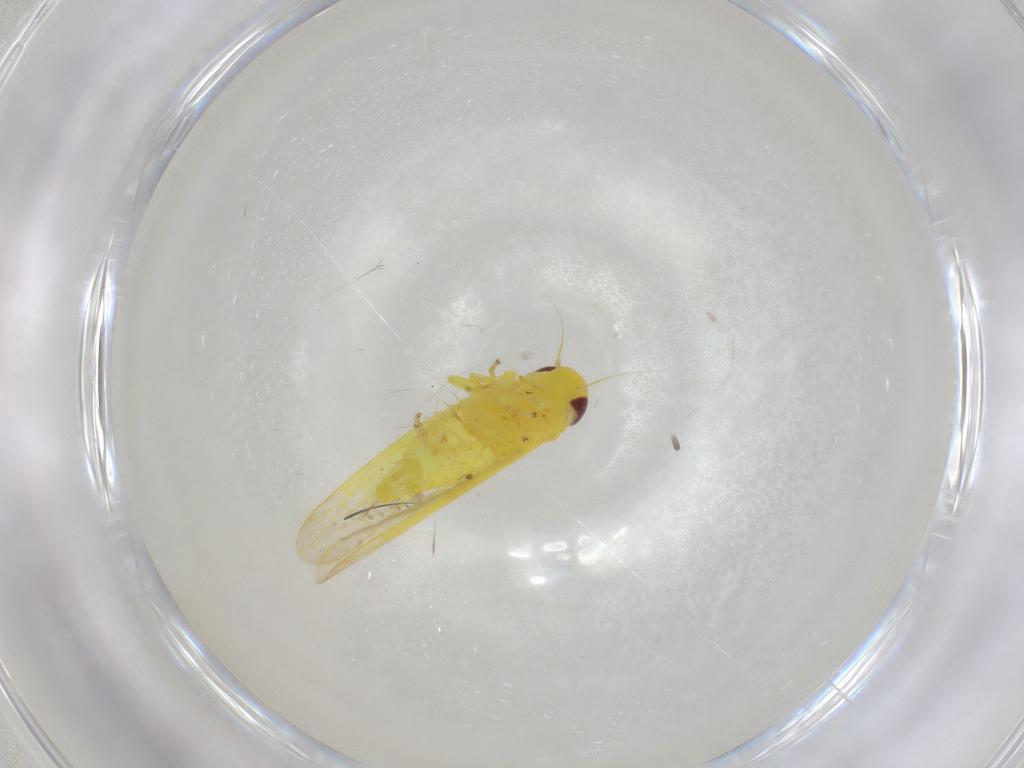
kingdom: Animalia
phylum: Arthropoda
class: Insecta
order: Hemiptera
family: Cicadellidae
